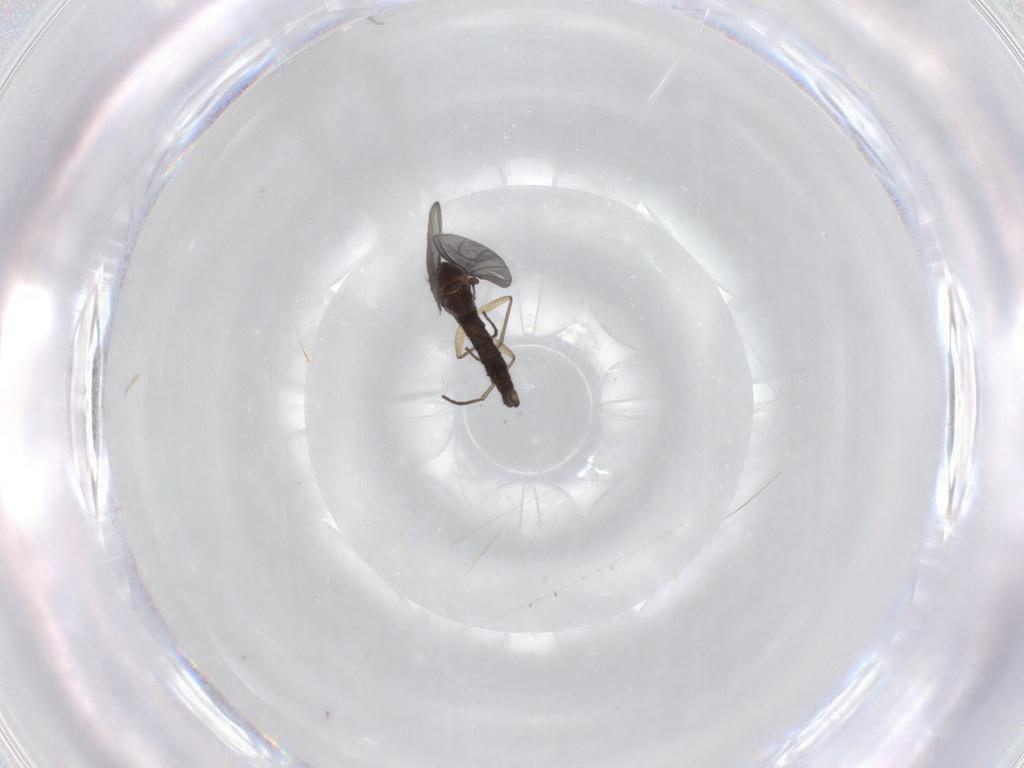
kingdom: Animalia
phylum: Arthropoda
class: Insecta
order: Diptera
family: Sciaridae
